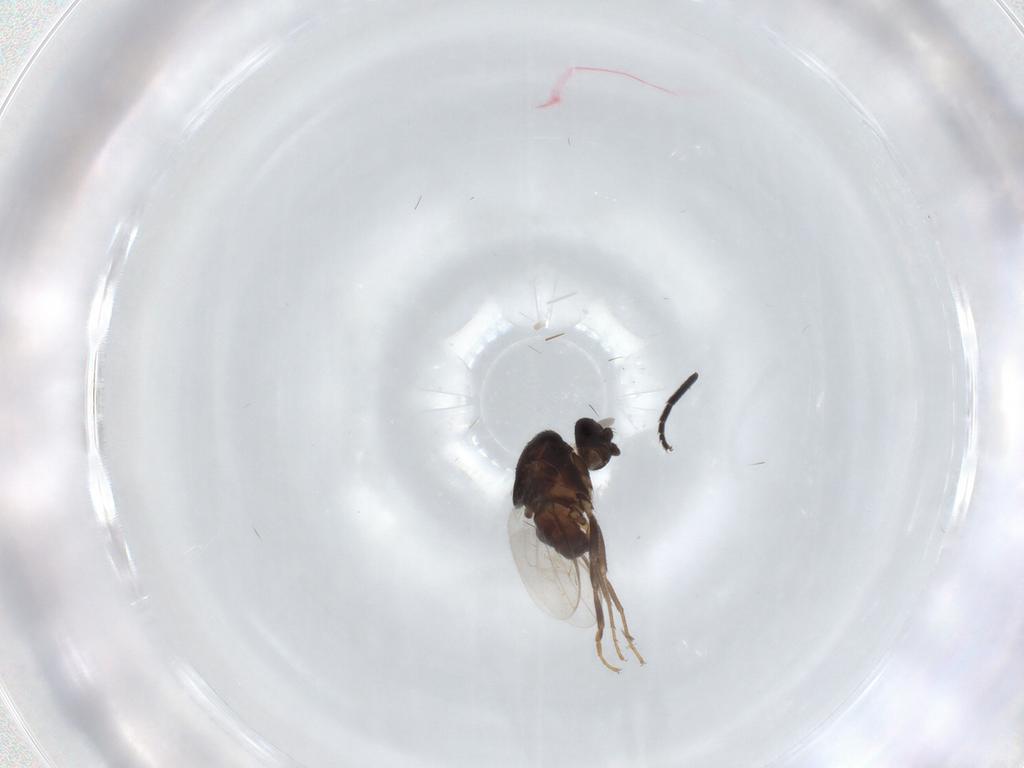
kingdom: Animalia
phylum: Arthropoda
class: Insecta
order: Diptera
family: Sphaeroceridae
